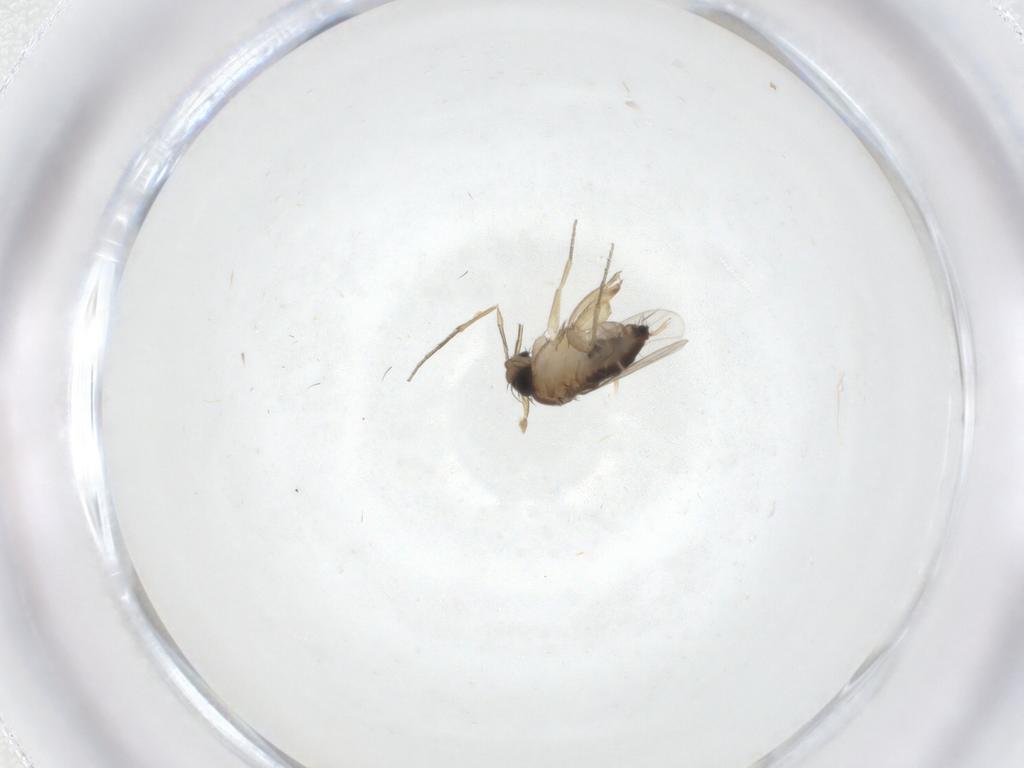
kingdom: Animalia
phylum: Arthropoda
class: Insecta
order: Diptera
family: Phoridae
